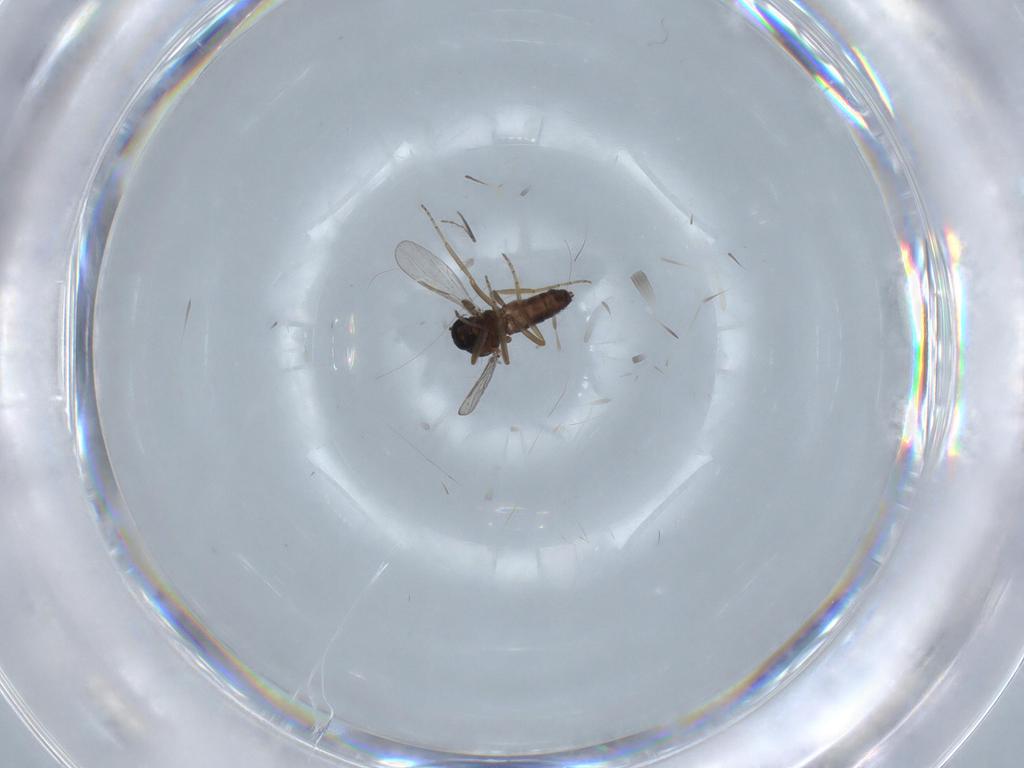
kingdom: Animalia
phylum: Arthropoda
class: Insecta
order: Diptera
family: Ceratopogonidae
